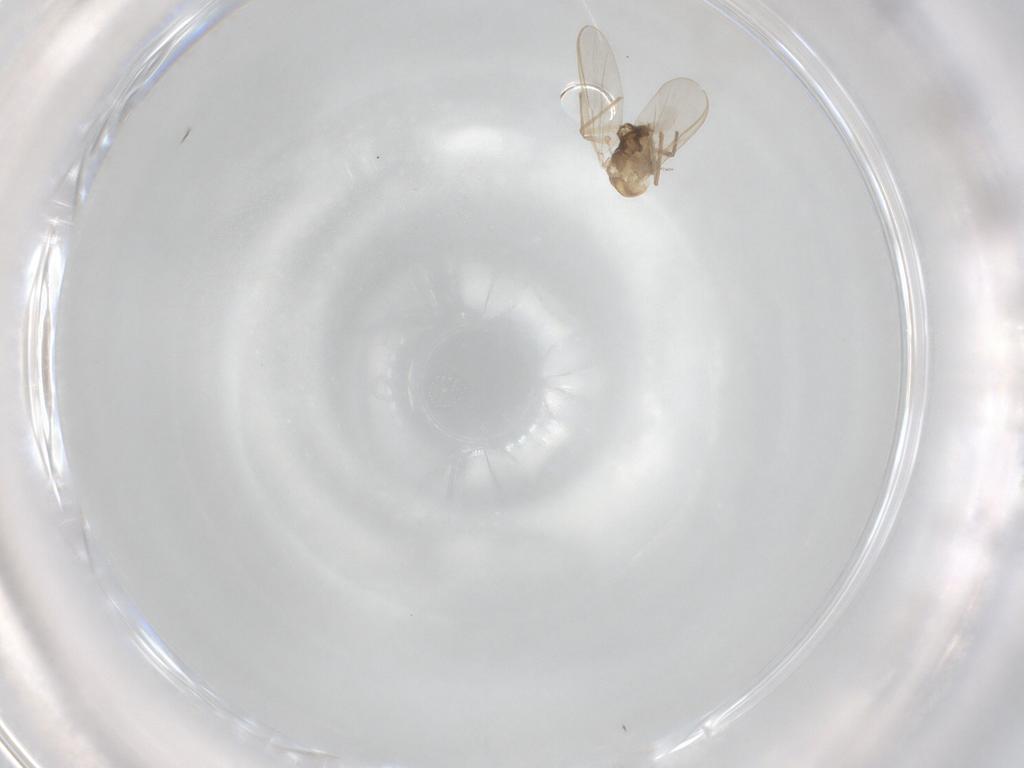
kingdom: Animalia
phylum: Arthropoda
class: Insecta
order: Diptera
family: Chironomidae
